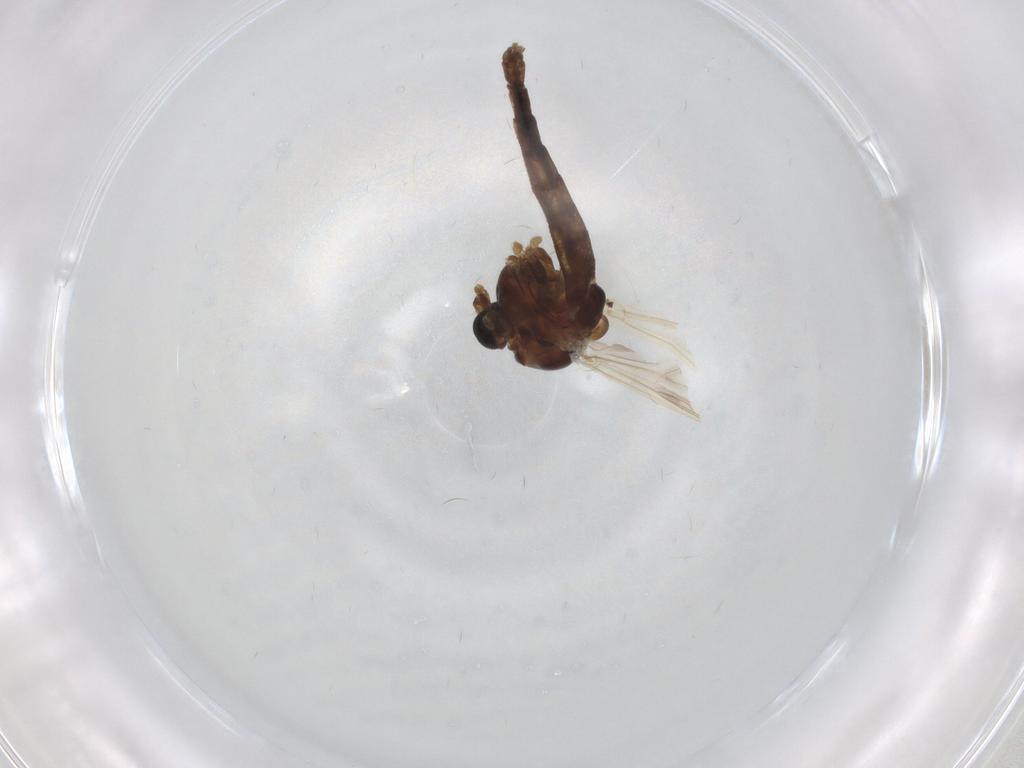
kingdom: Animalia
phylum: Arthropoda
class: Insecta
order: Diptera
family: Chironomidae
